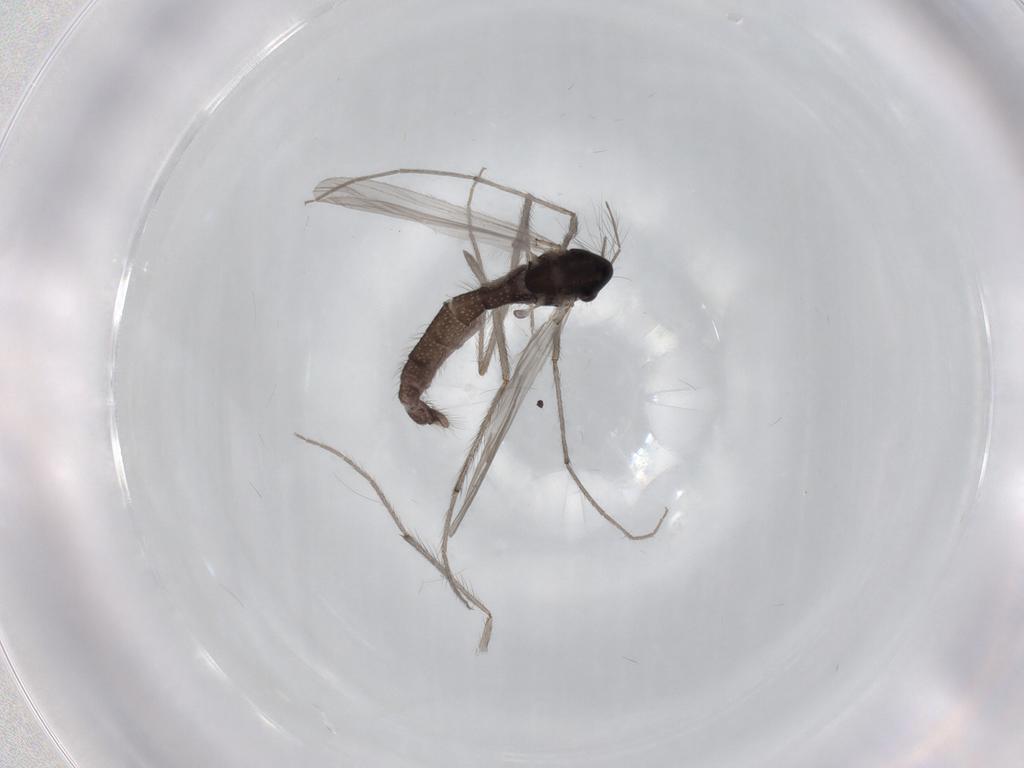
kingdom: Animalia
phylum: Arthropoda
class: Insecta
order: Diptera
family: Chironomidae
